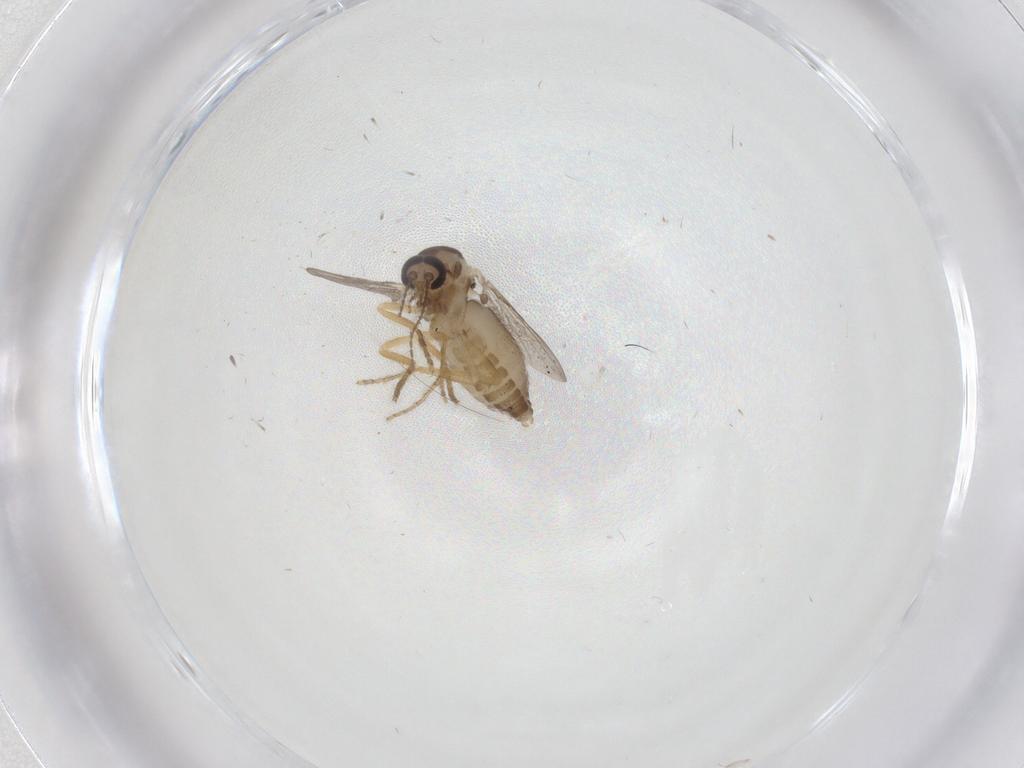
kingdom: Animalia
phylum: Arthropoda
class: Insecta
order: Diptera
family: Ceratopogonidae
